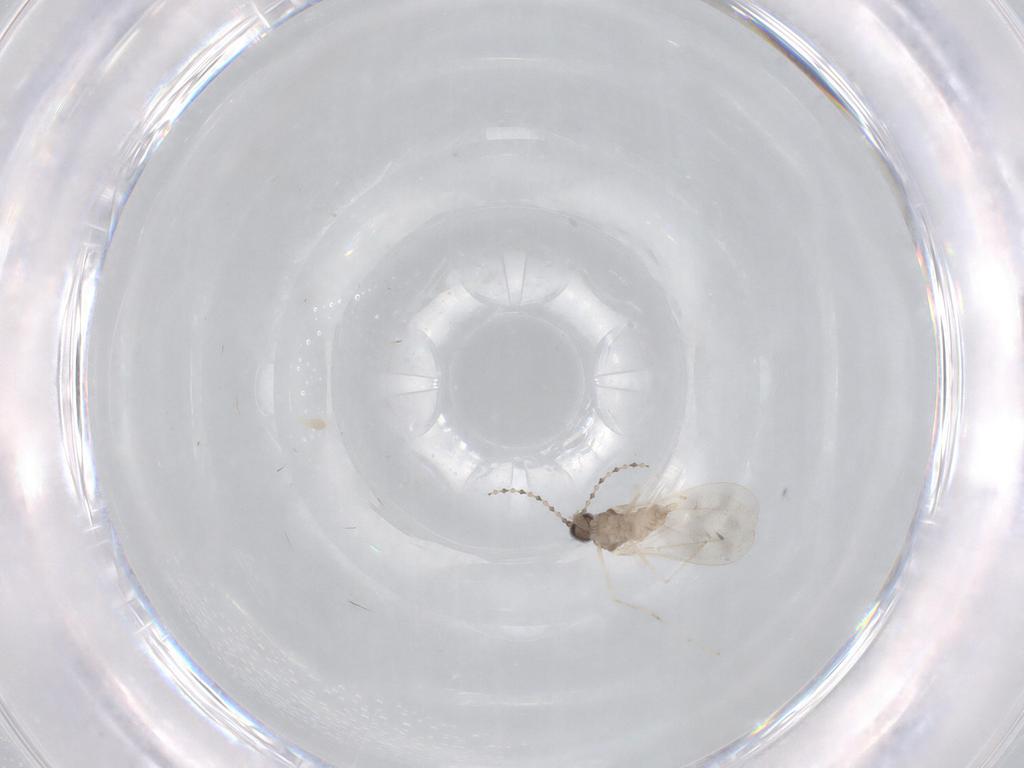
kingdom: Animalia
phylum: Arthropoda
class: Insecta
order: Diptera
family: Cecidomyiidae
